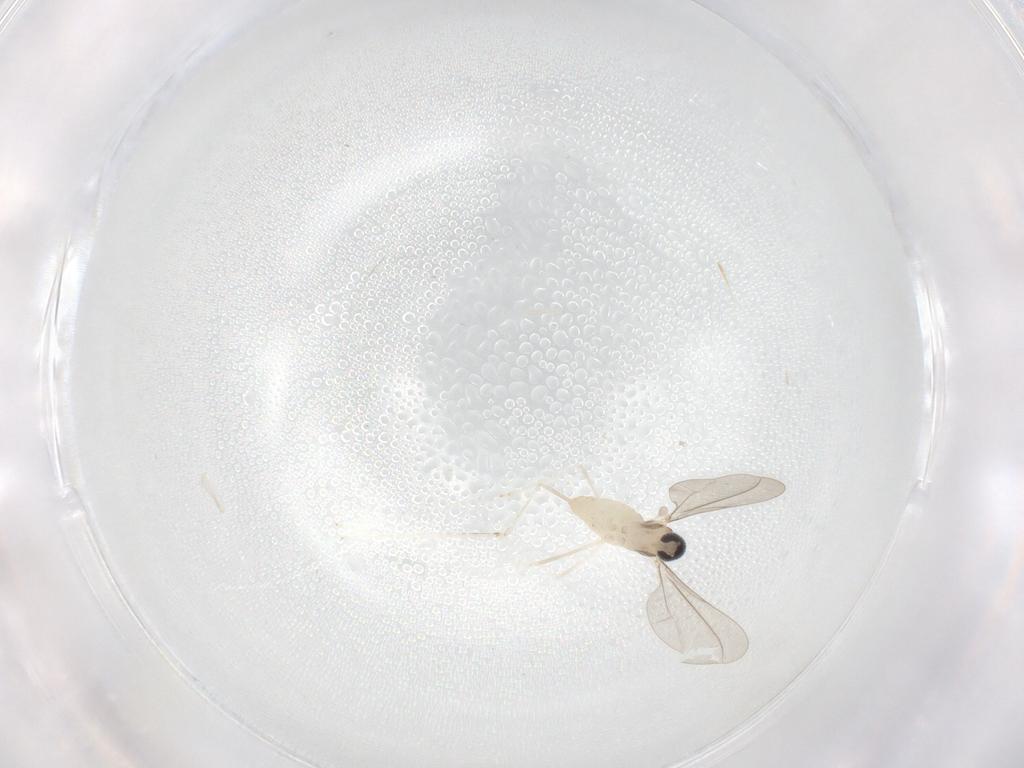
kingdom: Animalia
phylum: Arthropoda
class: Insecta
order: Diptera
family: Cecidomyiidae
